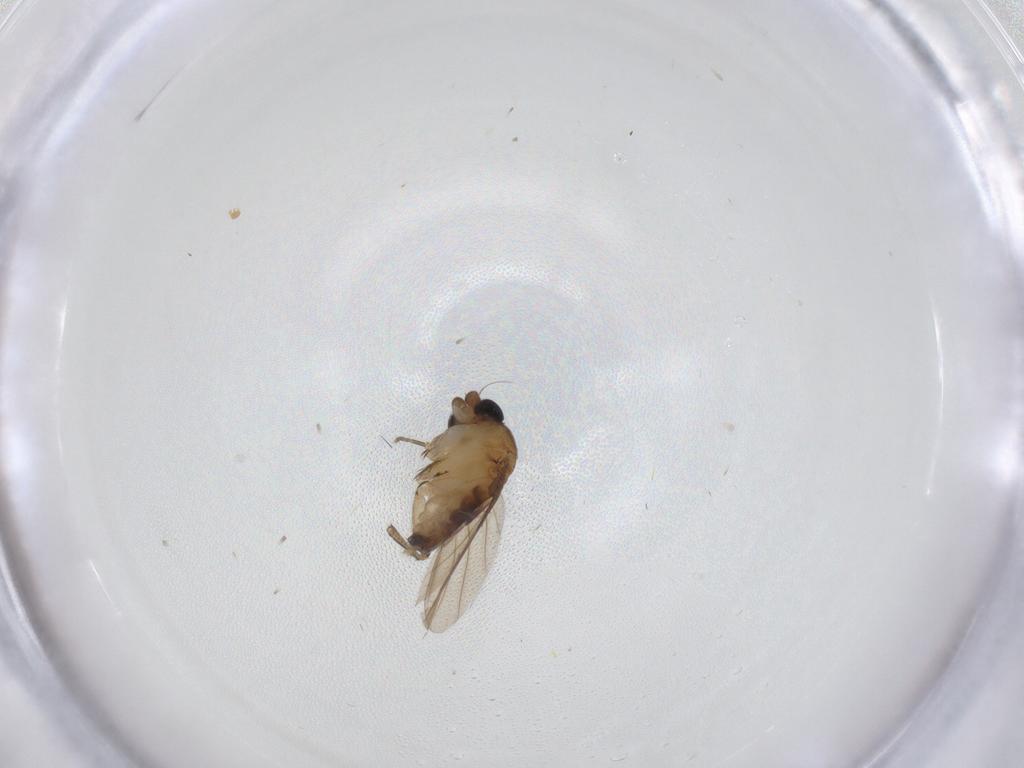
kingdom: Animalia
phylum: Arthropoda
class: Insecta
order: Diptera
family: Phoridae
